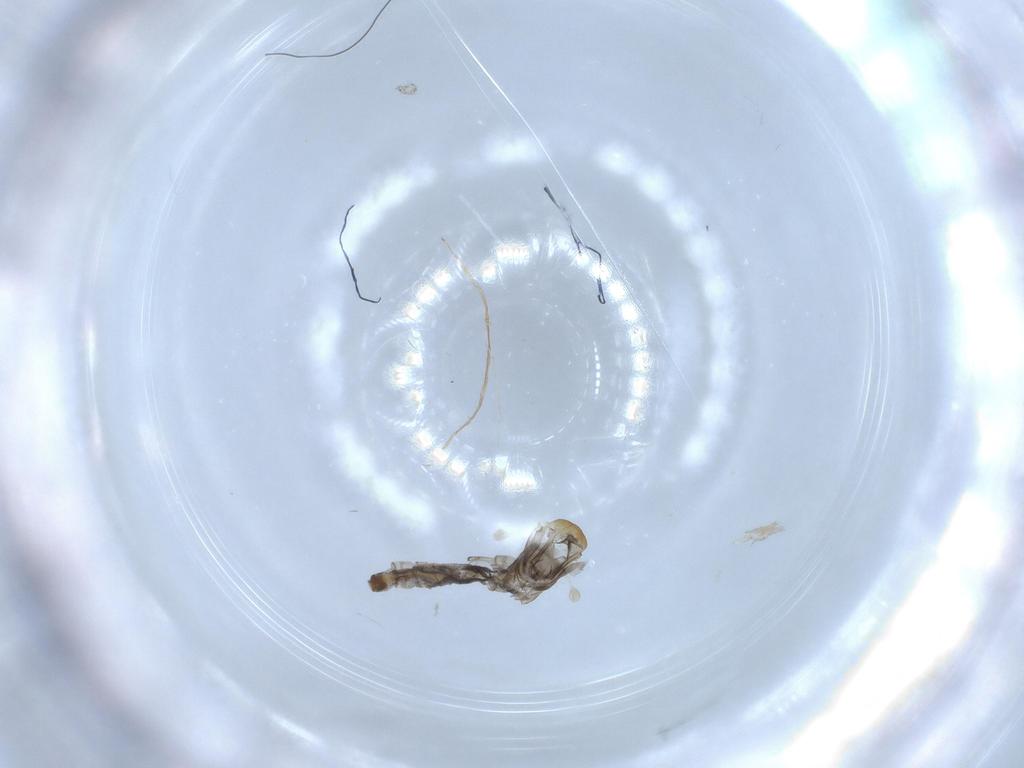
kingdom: Animalia
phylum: Arthropoda
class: Insecta
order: Diptera
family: Cecidomyiidae
